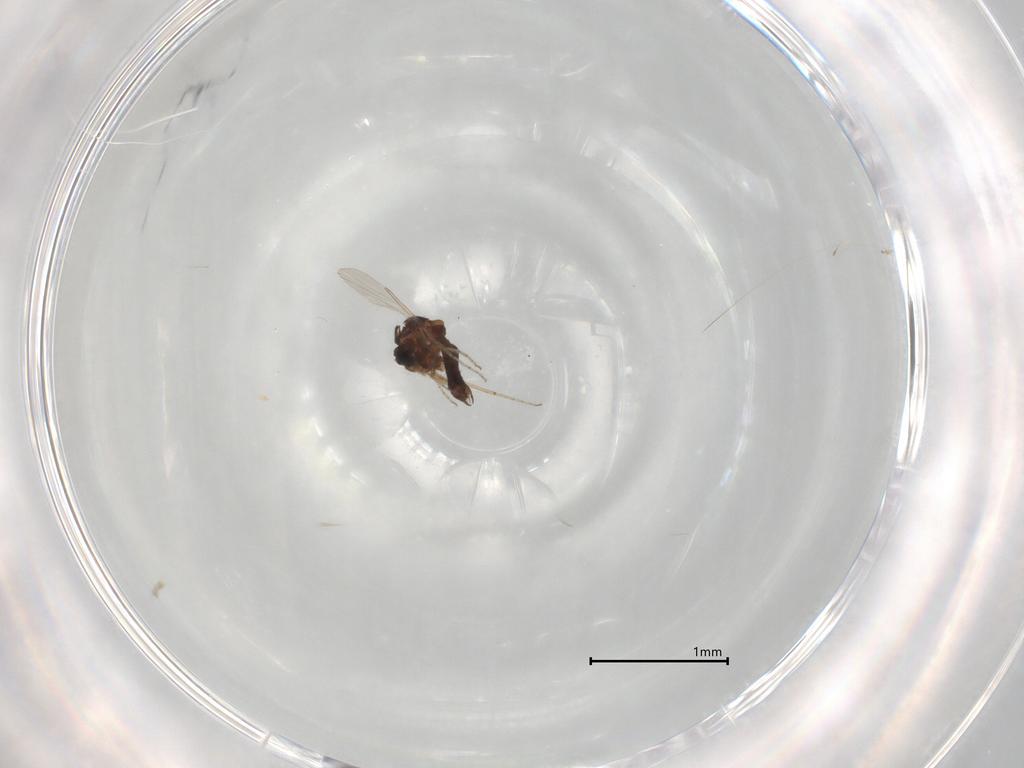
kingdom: Animalia
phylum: Arthropoda
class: Insecta
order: Diptera
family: Ceratopogonidae
